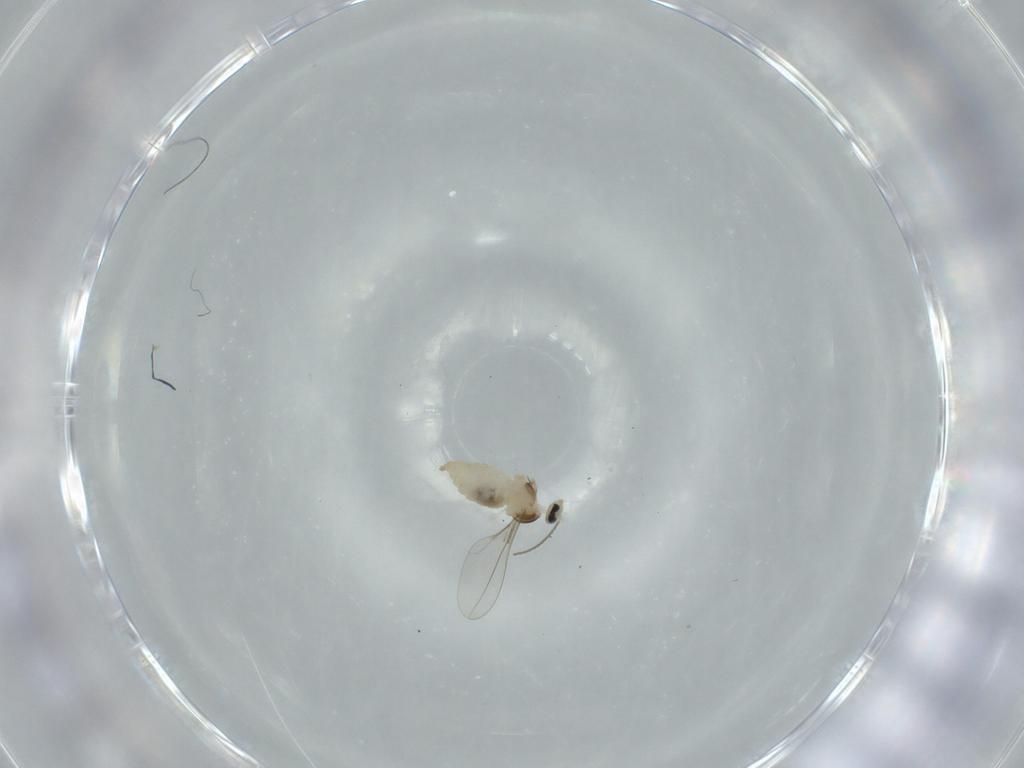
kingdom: Animalia
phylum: Arthropoda
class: Insecta
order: Diptera
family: Cecidomyiidae
